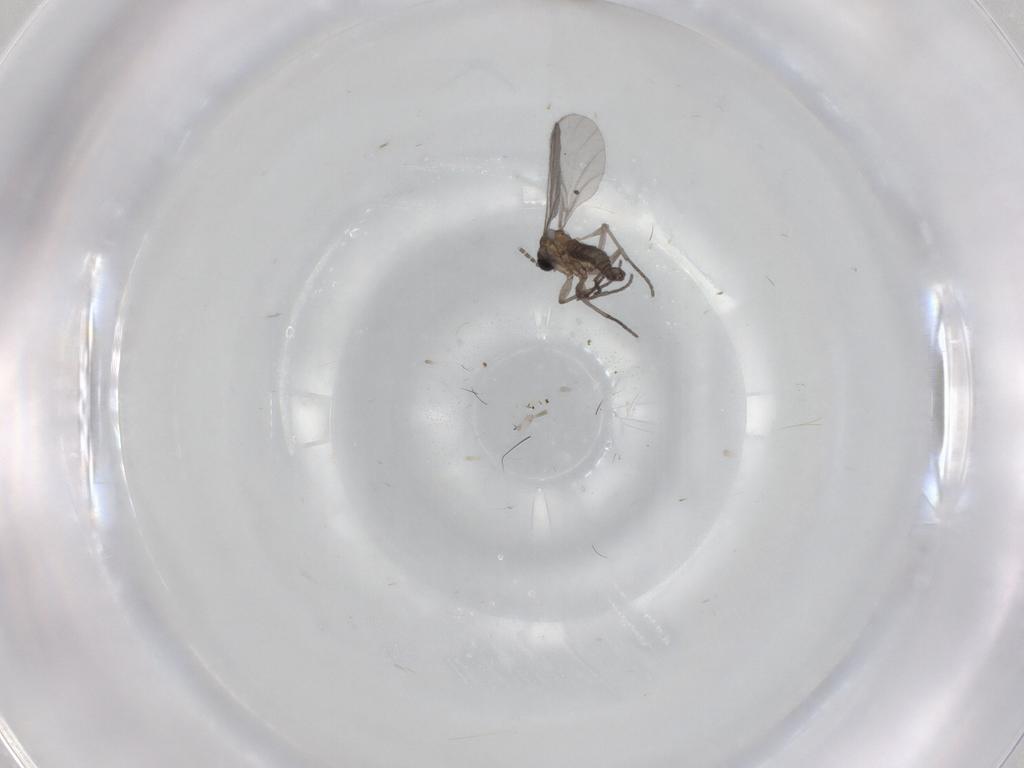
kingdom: Animalia
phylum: Arthropoda
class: Insecta
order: Diptera
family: Sciaridae
